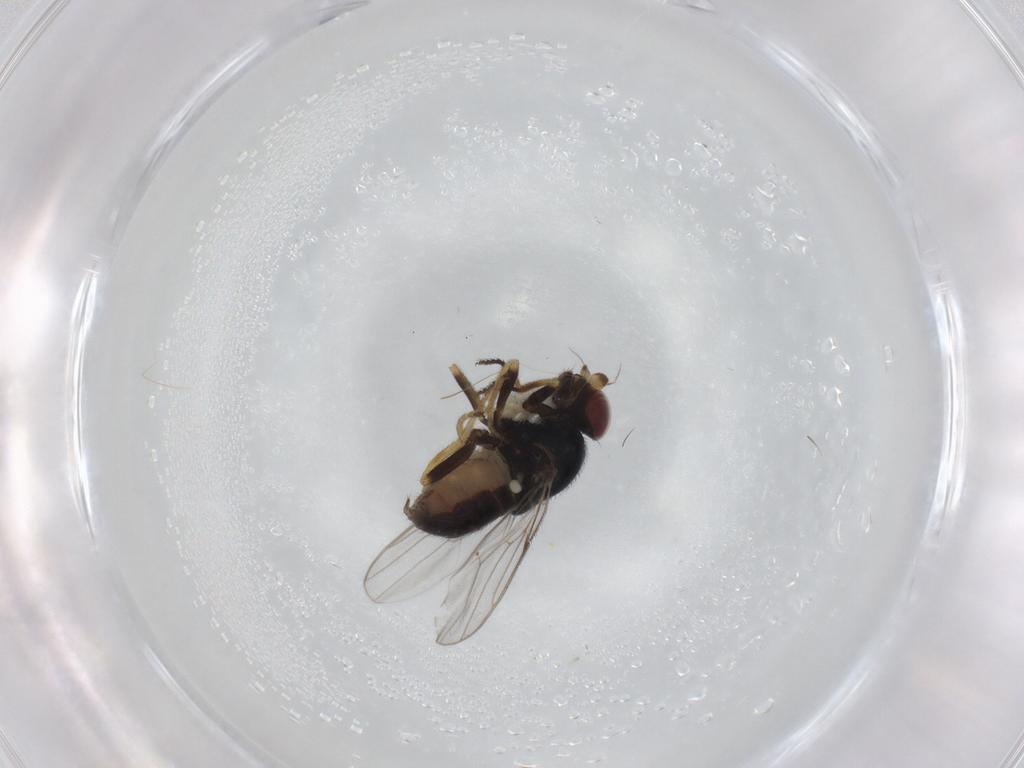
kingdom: Animalia
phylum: Arthropoda
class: Insecta
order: Diptera
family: Chloropidae
